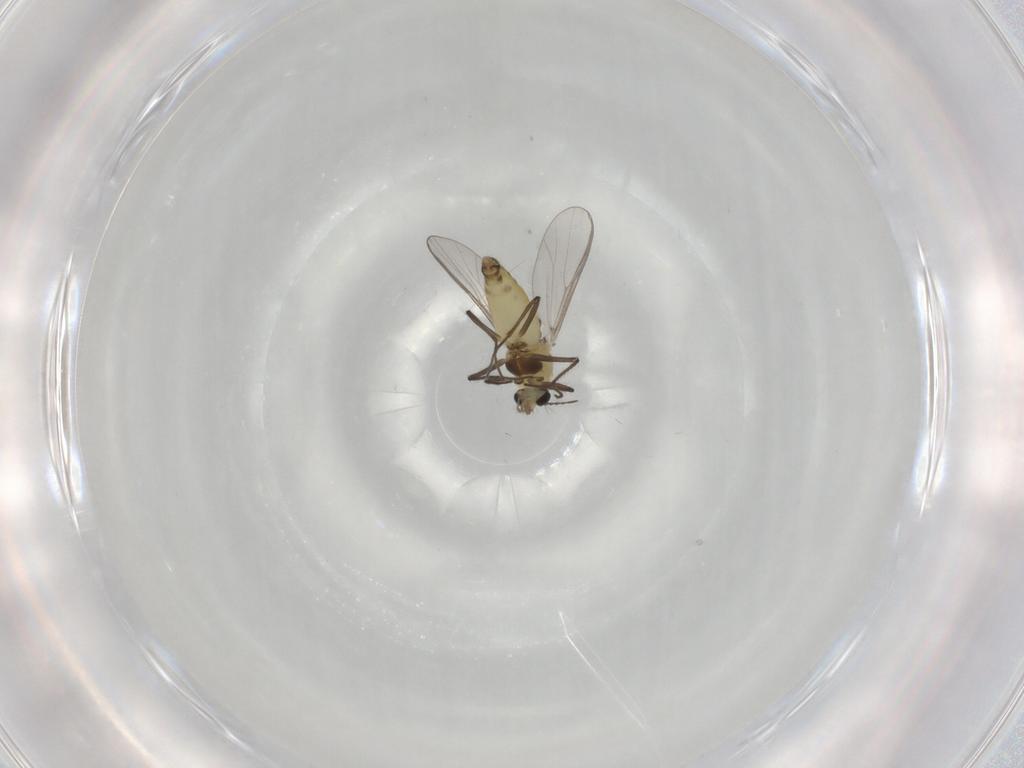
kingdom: Animalia
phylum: Arthropoda
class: Insecta
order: Diptera
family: Chironomidae
